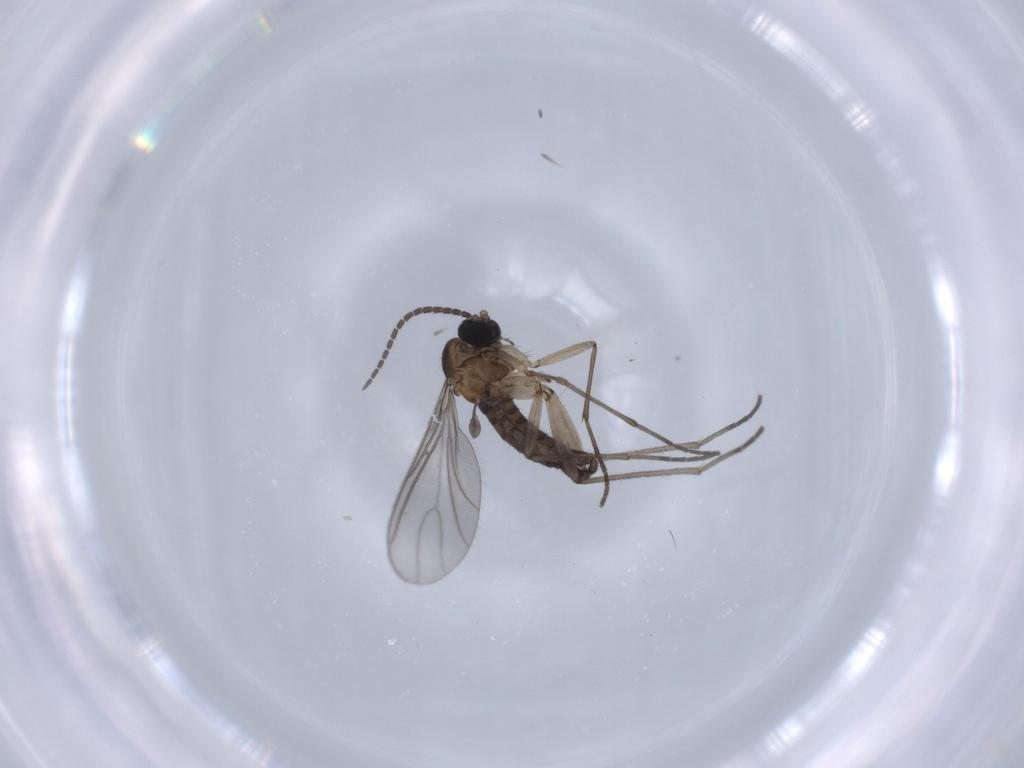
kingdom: Animalia
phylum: Arthropoda
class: Insecta
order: Diptera
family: Sciaridae
